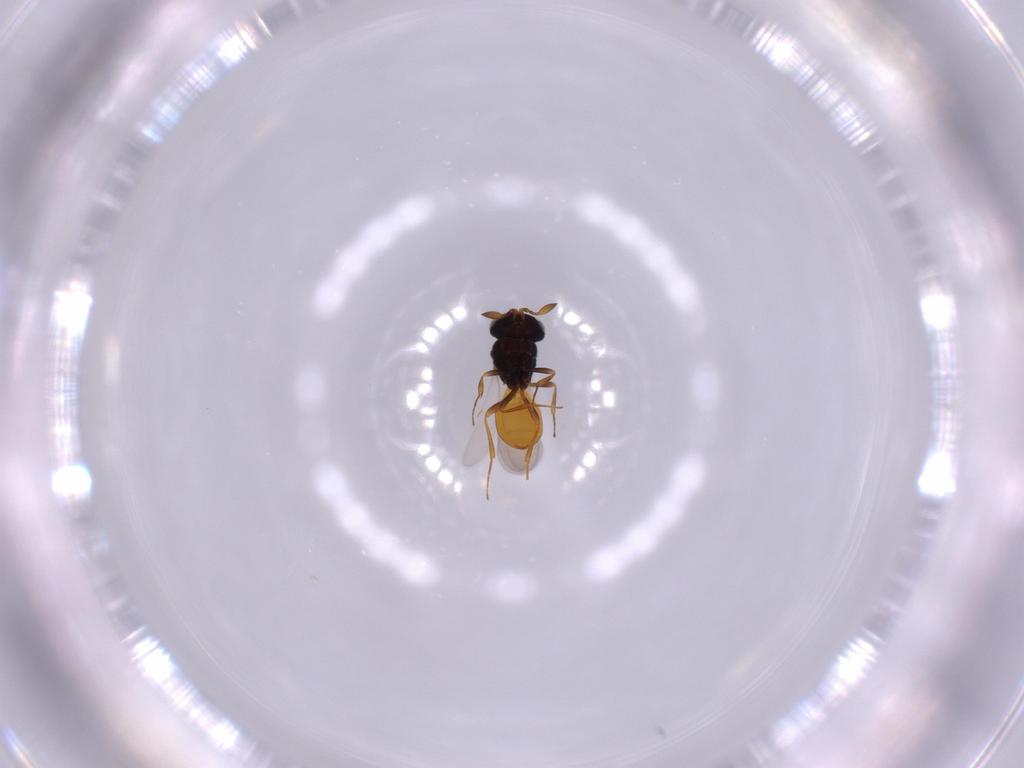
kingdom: Animalia
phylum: Arthropoda
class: Insecta
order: Hymenoptera
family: Scelionidae
